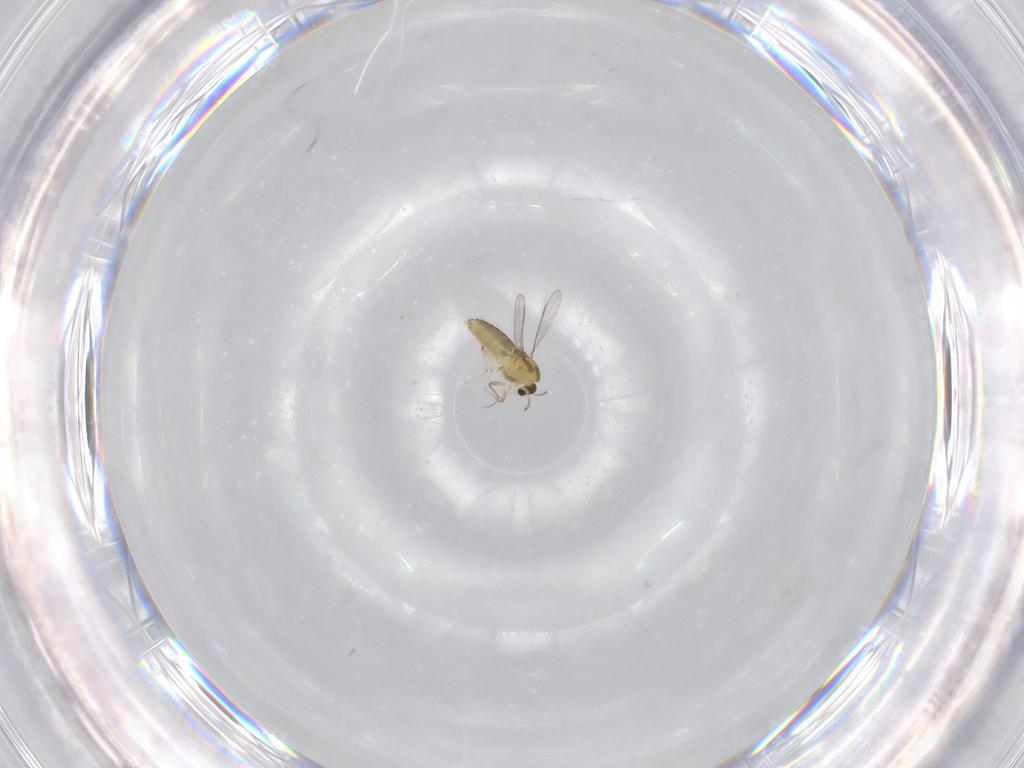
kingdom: Animalia
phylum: Arthropoda
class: Insecta
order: Diptera
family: Chironomidae
